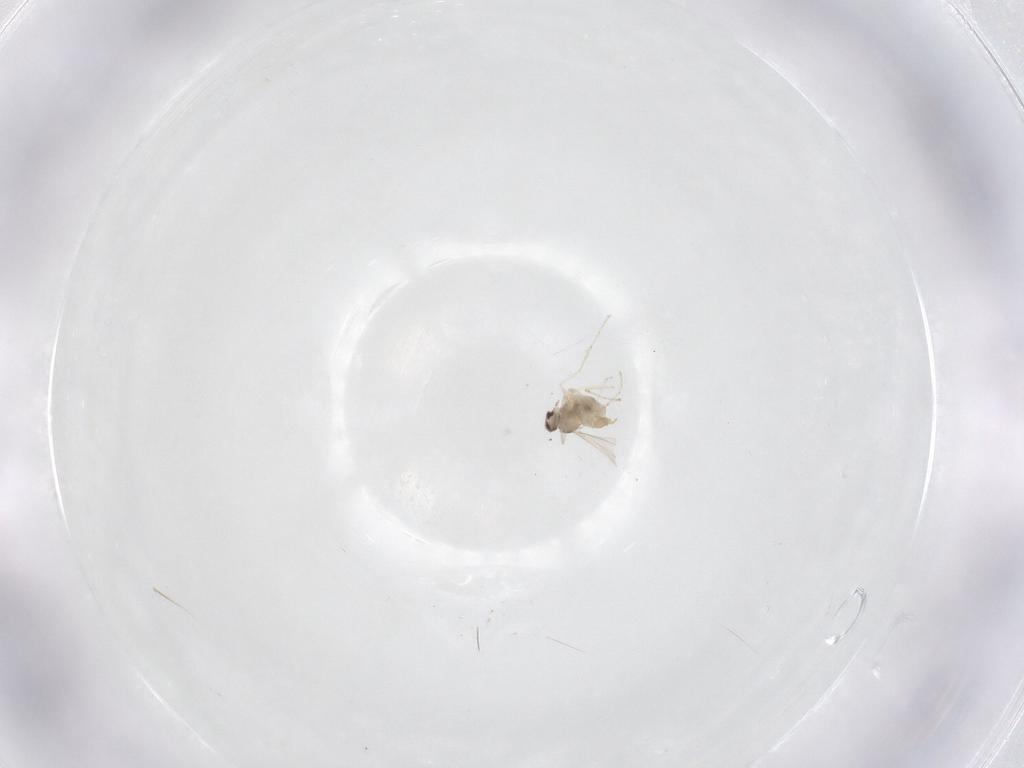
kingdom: Animalia
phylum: Arthropoda
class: Insecta
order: Diptera
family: Cecidomyiidae
